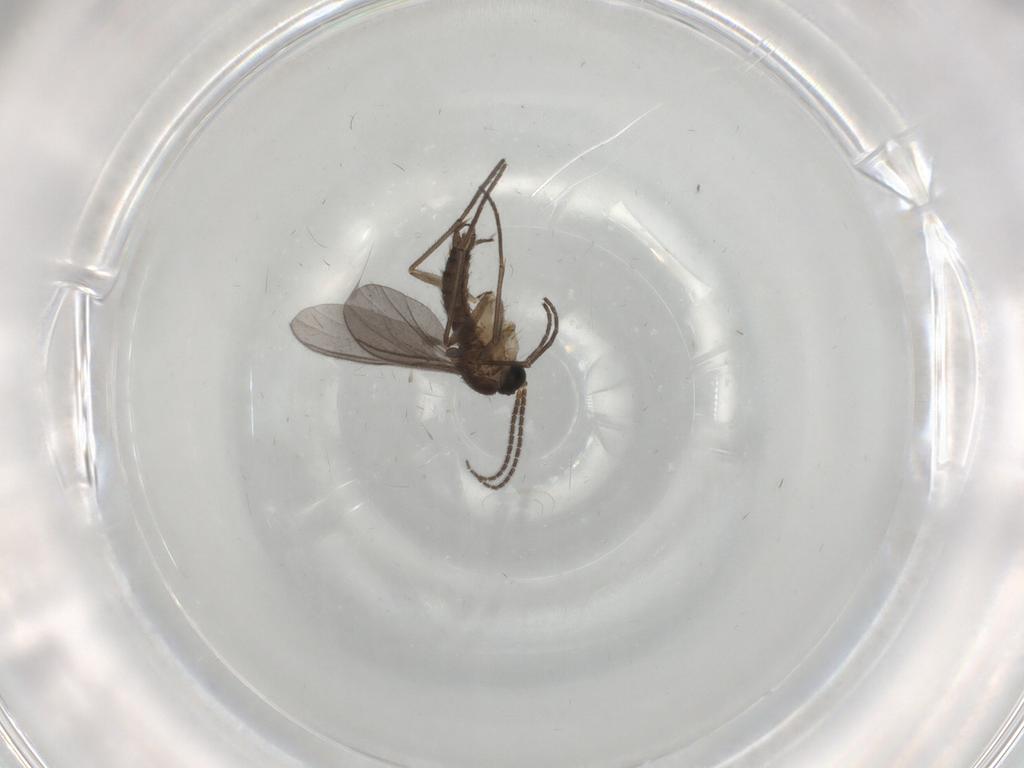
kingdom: Animalia
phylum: Arthropoda
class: Insecta
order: Diptera
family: Sciaridae
